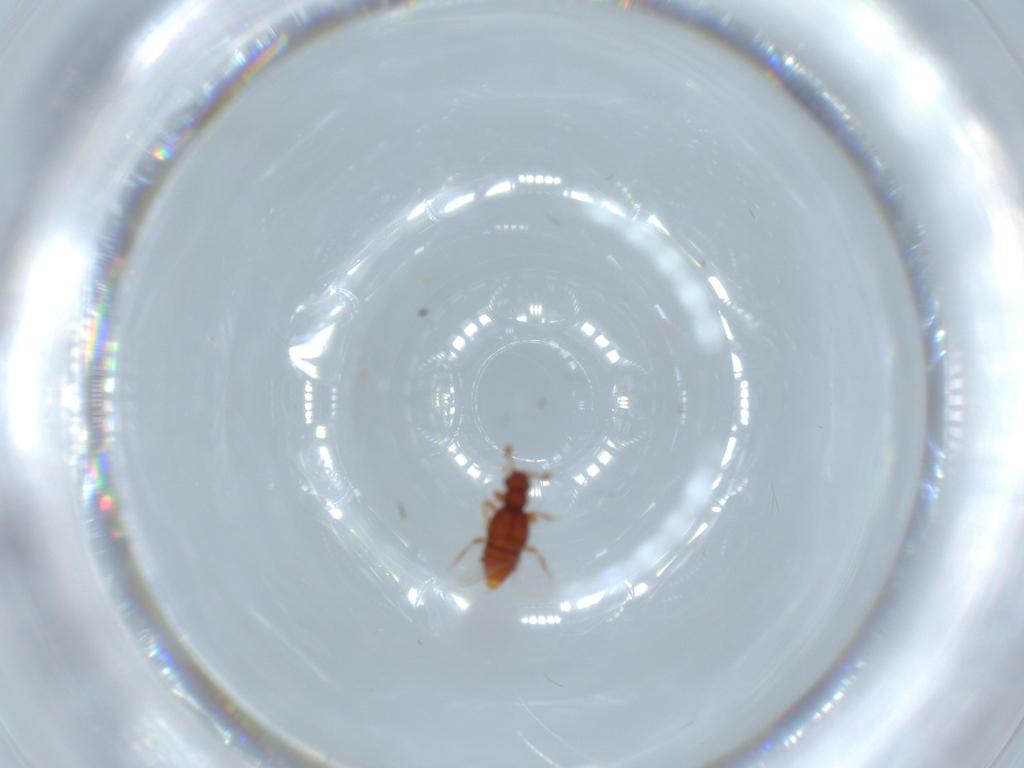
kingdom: Animalia
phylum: Arthropoda
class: Insecta
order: Coleoptera
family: Staphylinidae
